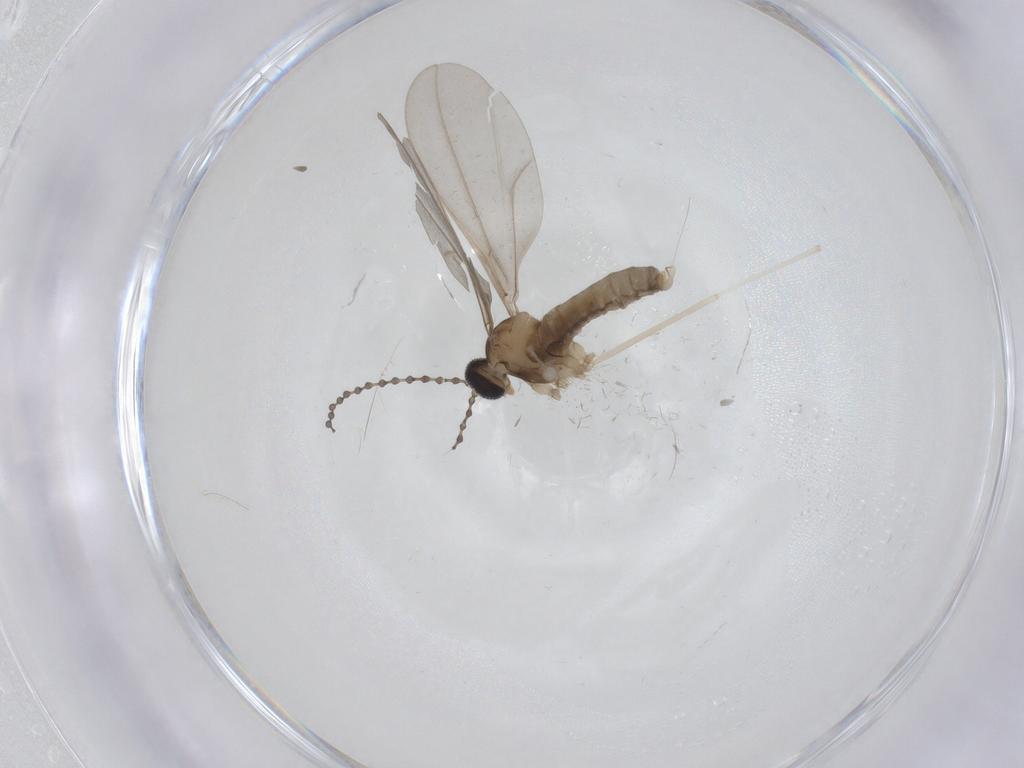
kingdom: Animalia
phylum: Arthropoda
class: Insecta
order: Diptera
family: Cecidomyiidae
